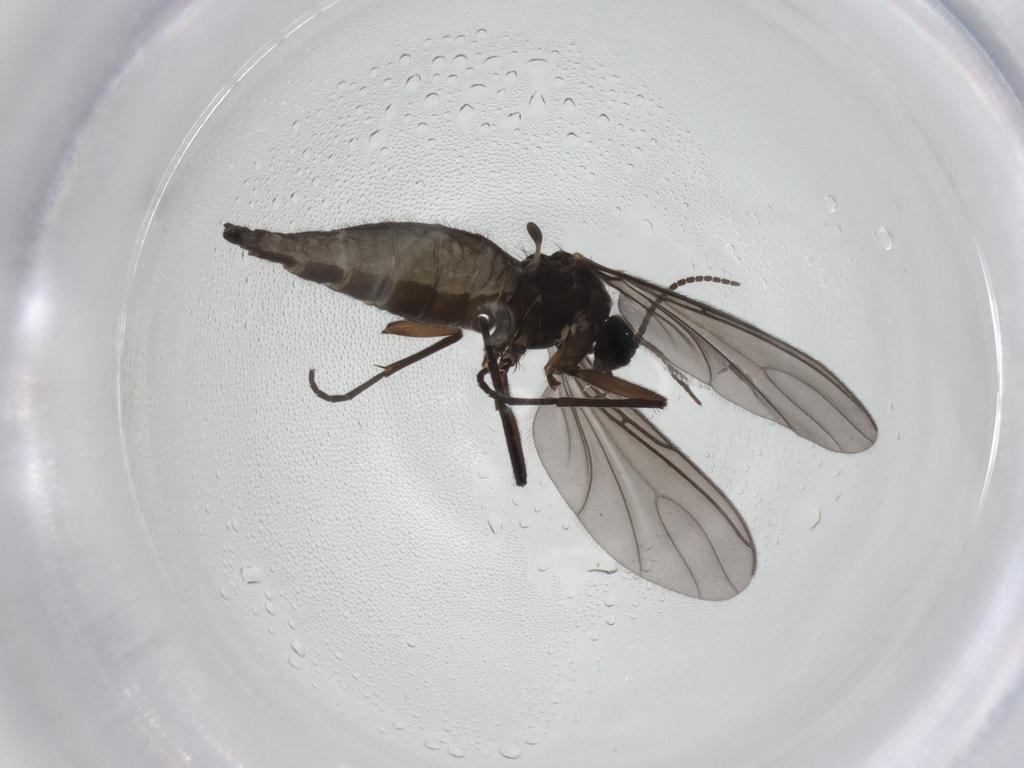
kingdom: Animalia
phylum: Arthropoda
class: Insecta
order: Diptera
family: Sciaridae
